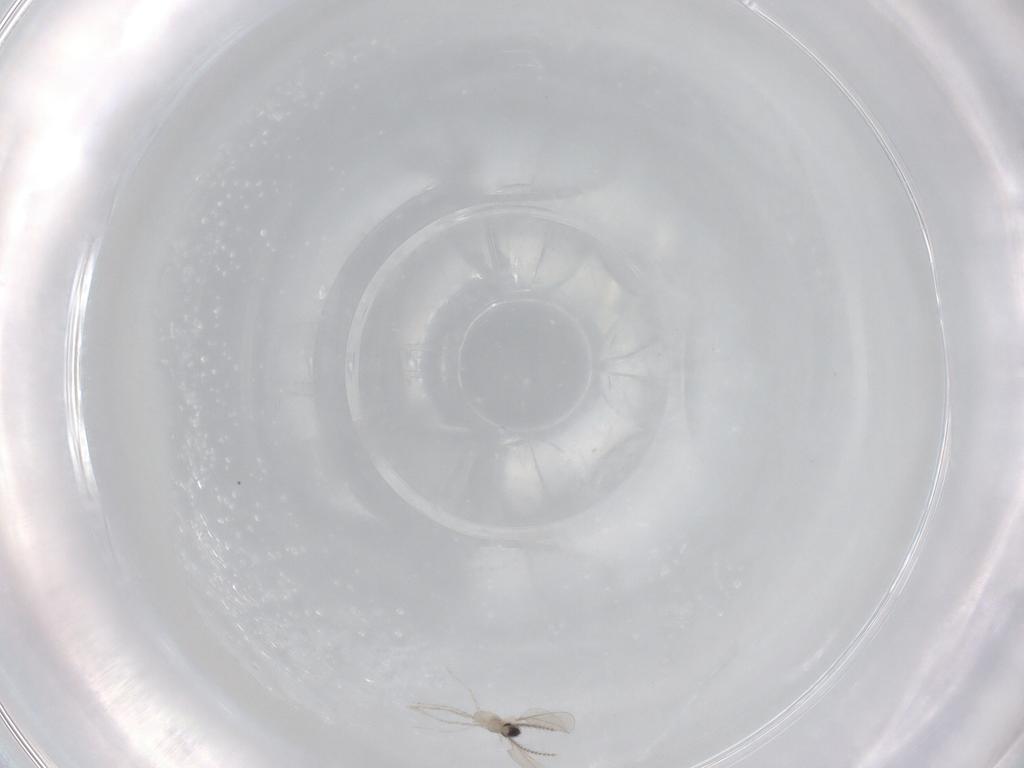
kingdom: Animalia
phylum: Arthropoda
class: Insecta
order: Diptera
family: Cecidomyiidae
